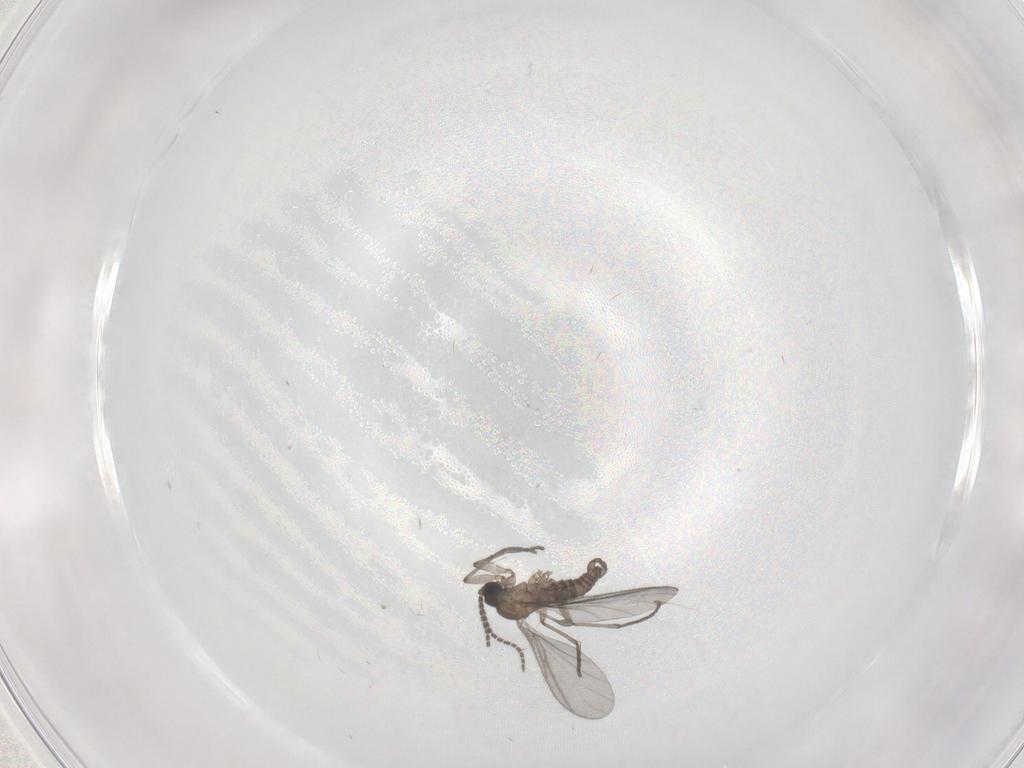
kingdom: Animalia
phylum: Arthropoda
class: Insecta
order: Diptera
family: Sciaridae
